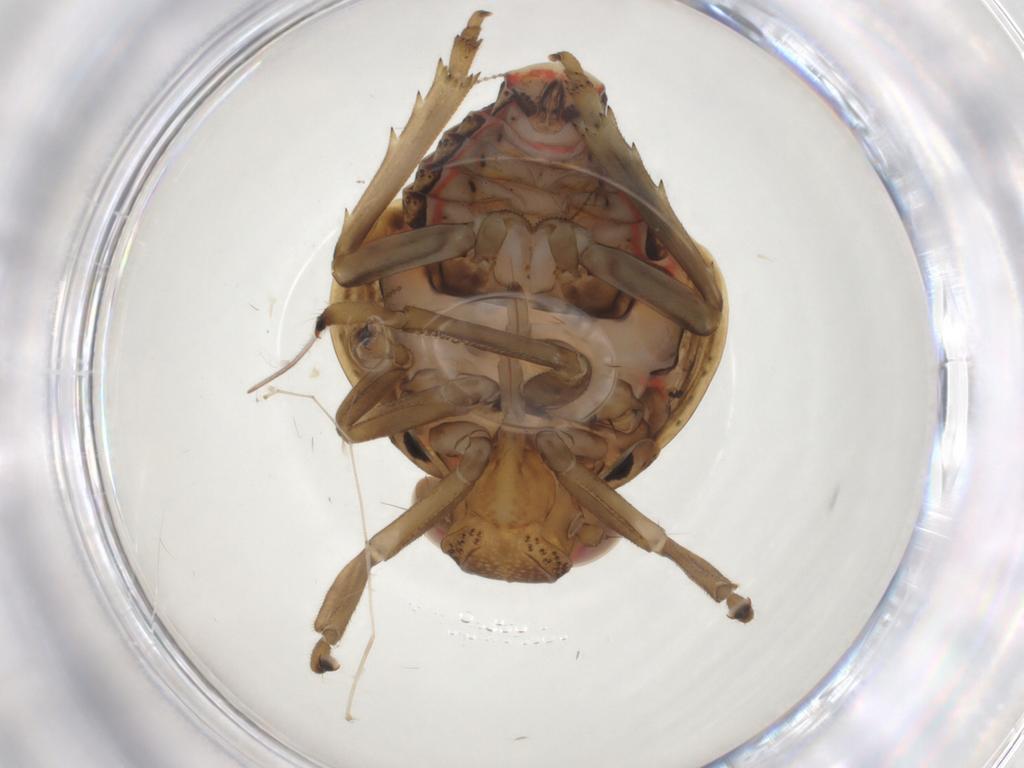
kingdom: Animalia
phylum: Arthropoda
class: Insecta
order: Hemiptera
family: Issidae
